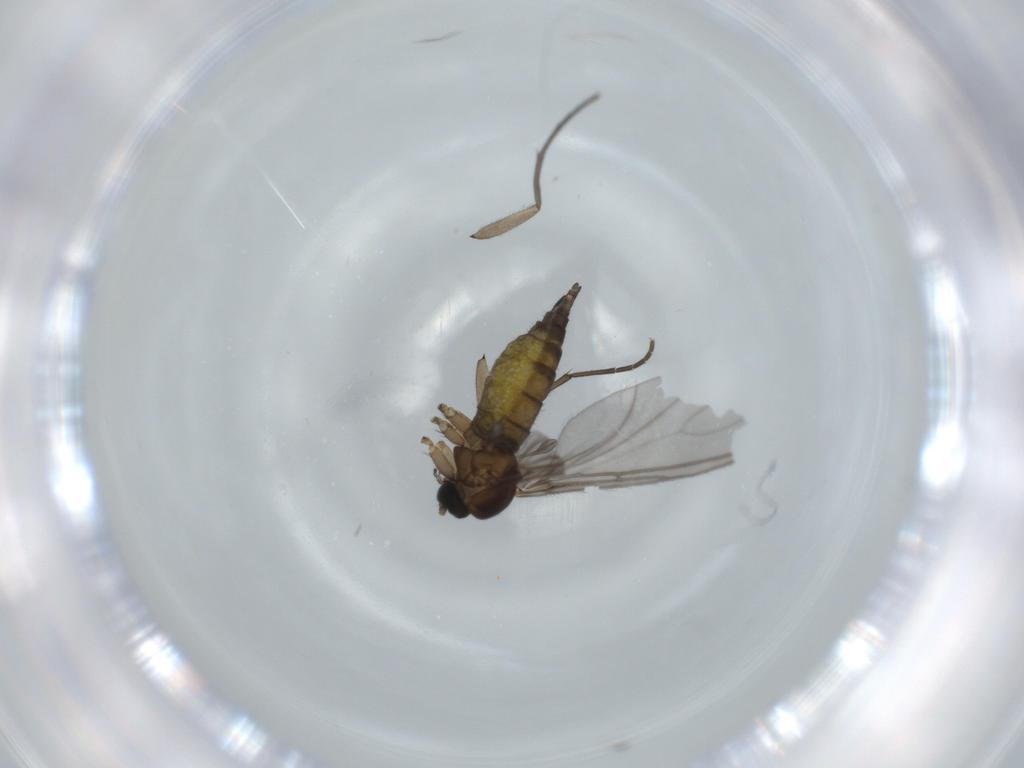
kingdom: Animalia
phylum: Arthropoda
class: Insecta
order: Diptera
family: Sciaridae
